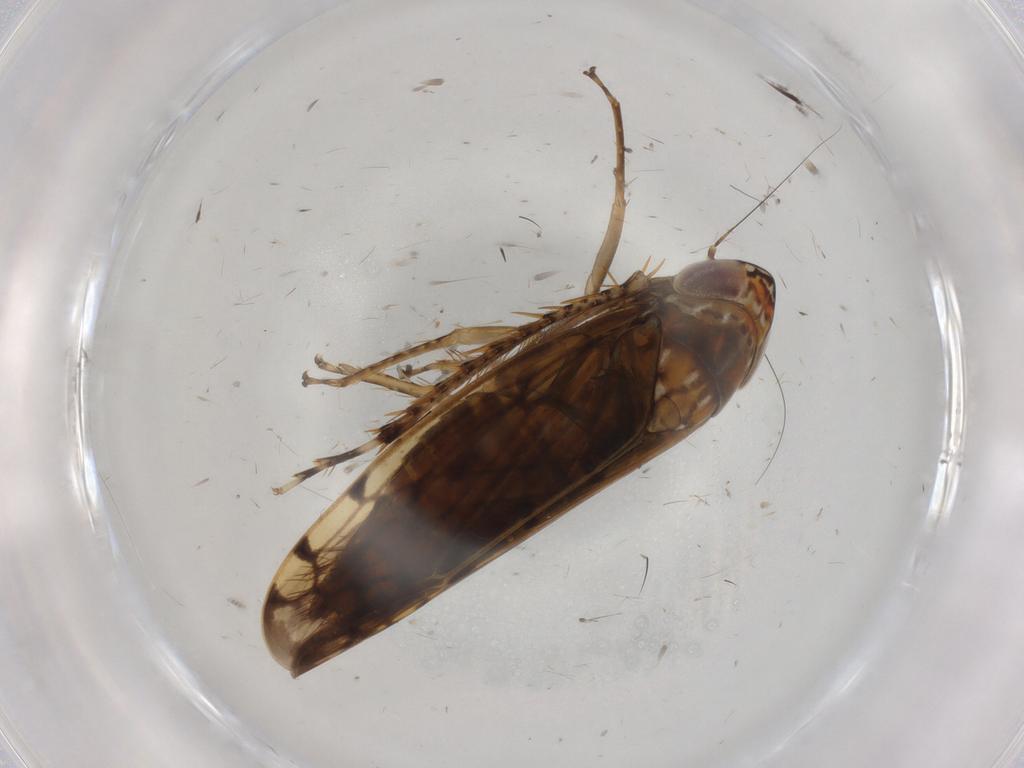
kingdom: Animalia
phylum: Arthropoda
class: Insecta
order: Hemiptera
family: Cicadellidae
